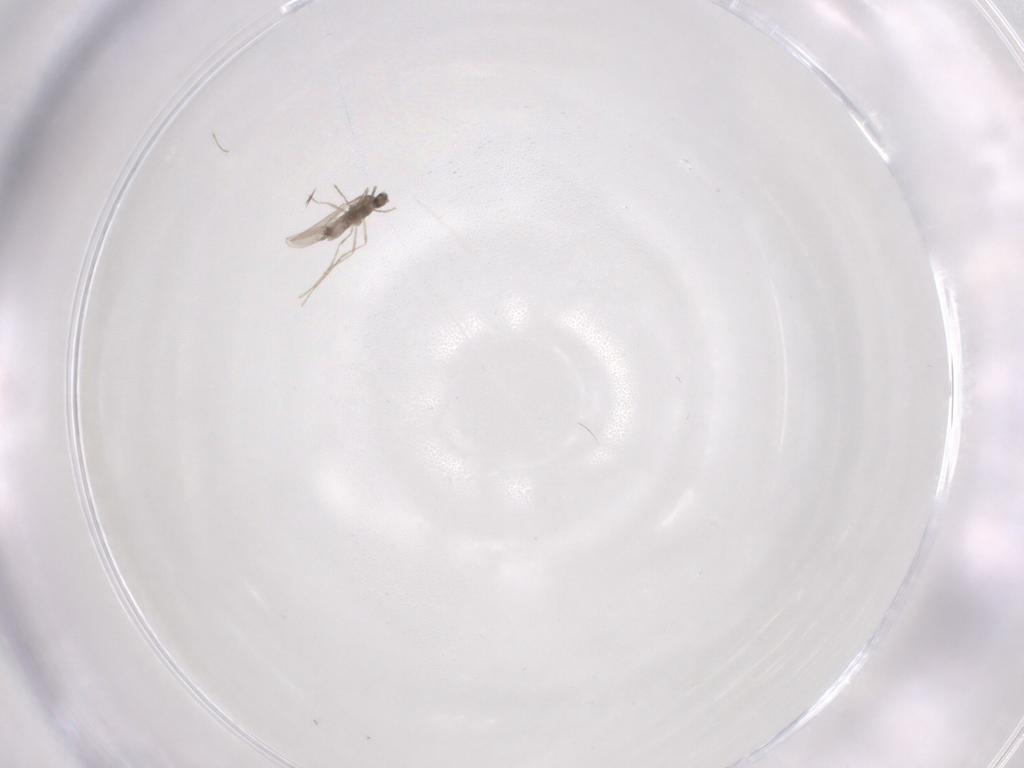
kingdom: Animalia
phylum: Arthropoda
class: Insecta
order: Diptera
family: Cecidomyiidae
